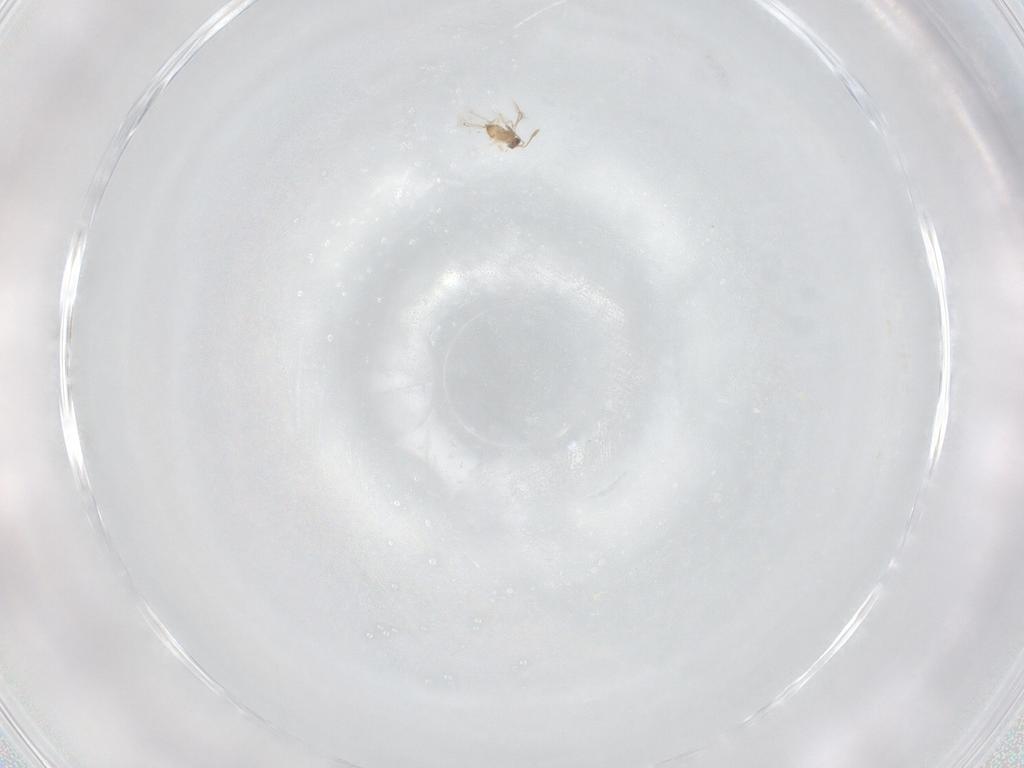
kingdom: Animalia
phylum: Arthropoda
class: Insecta
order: Hymenoptera
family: Mymaridae
